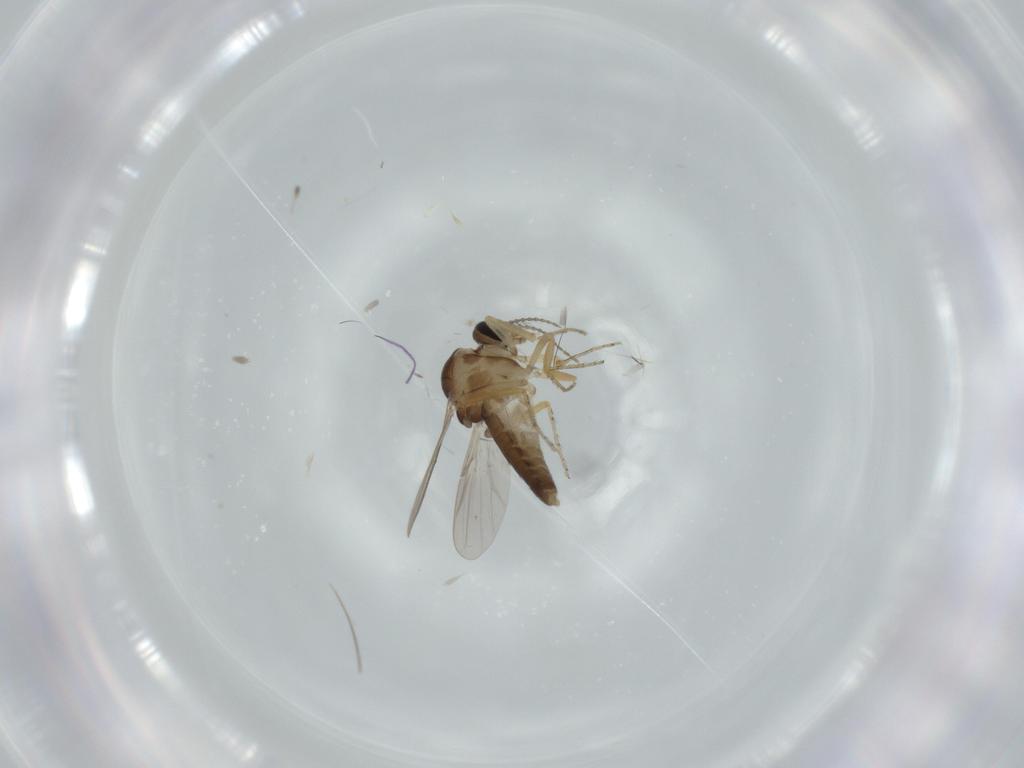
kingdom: Animalia
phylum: Arthropoda
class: Insecta
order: Diptera
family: Ceratopogonidae
